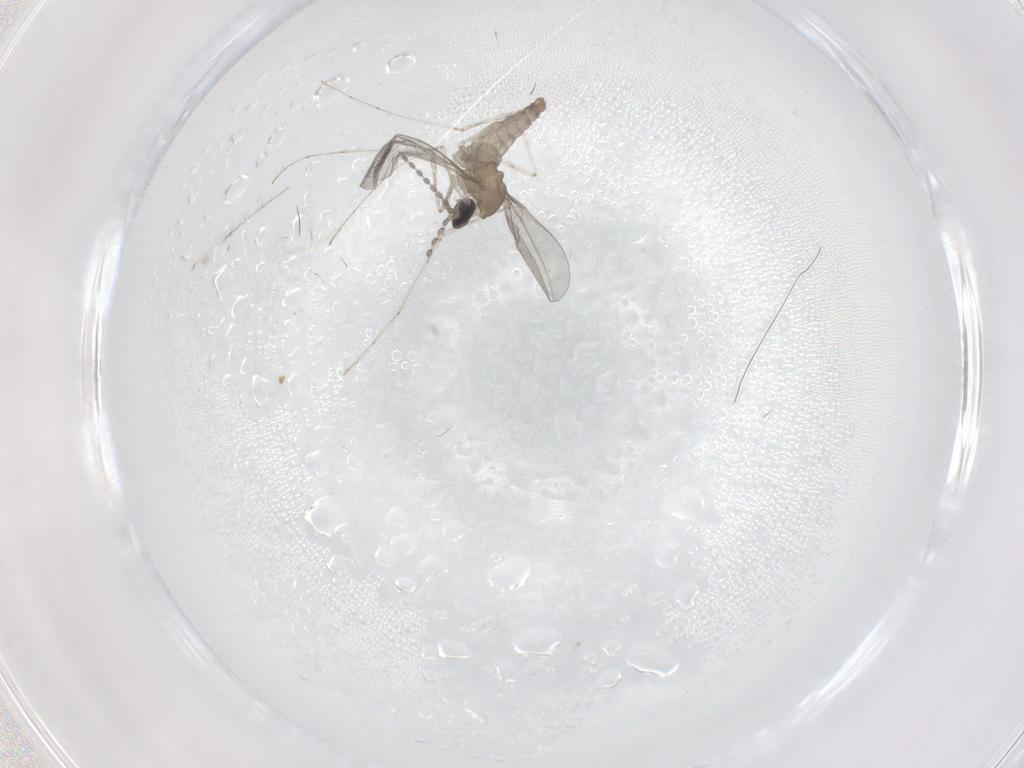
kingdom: Animalia
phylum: Arthropoda
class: Insecta
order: Diptera
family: Cecidomyiidae
